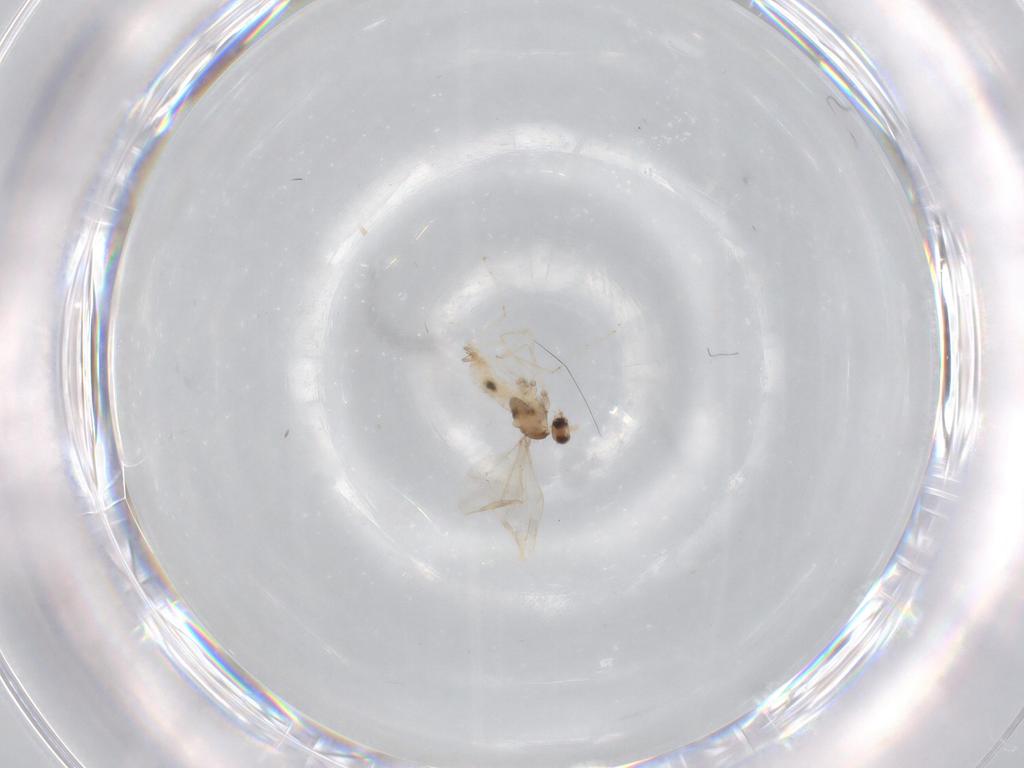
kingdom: Animalia
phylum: Arthropoda
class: Insecta
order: Diptera
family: Cecidomyiidae
